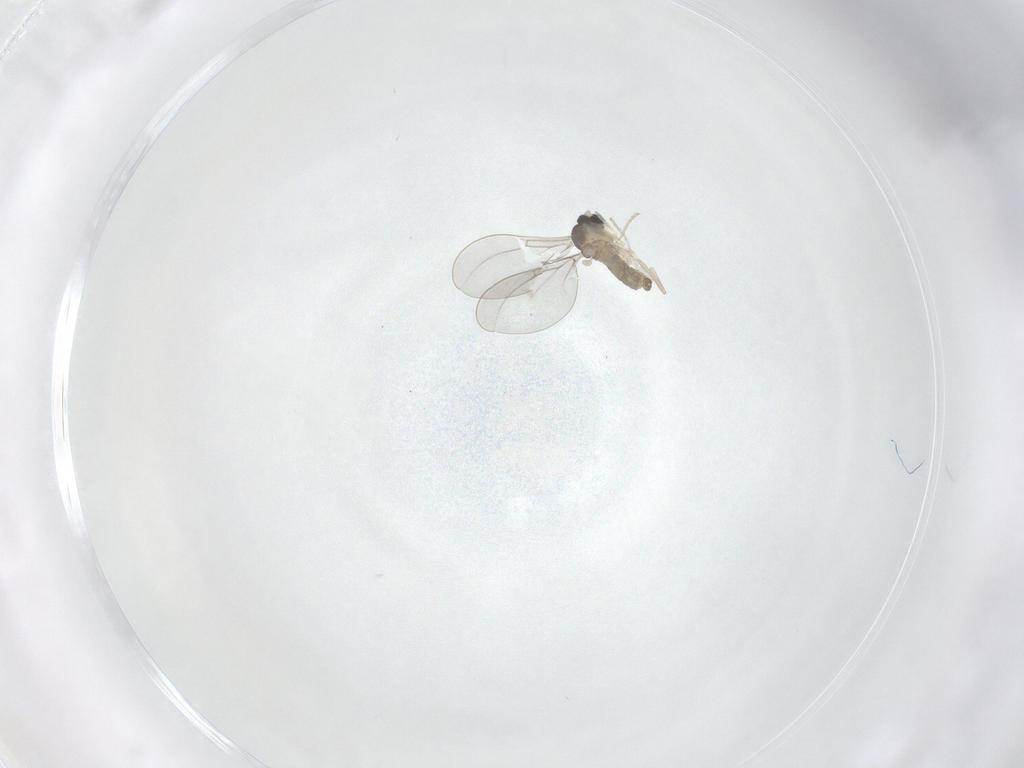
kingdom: Animalia
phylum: Arthropoda
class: Insecta
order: Diptera
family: Cecidomyiidae
